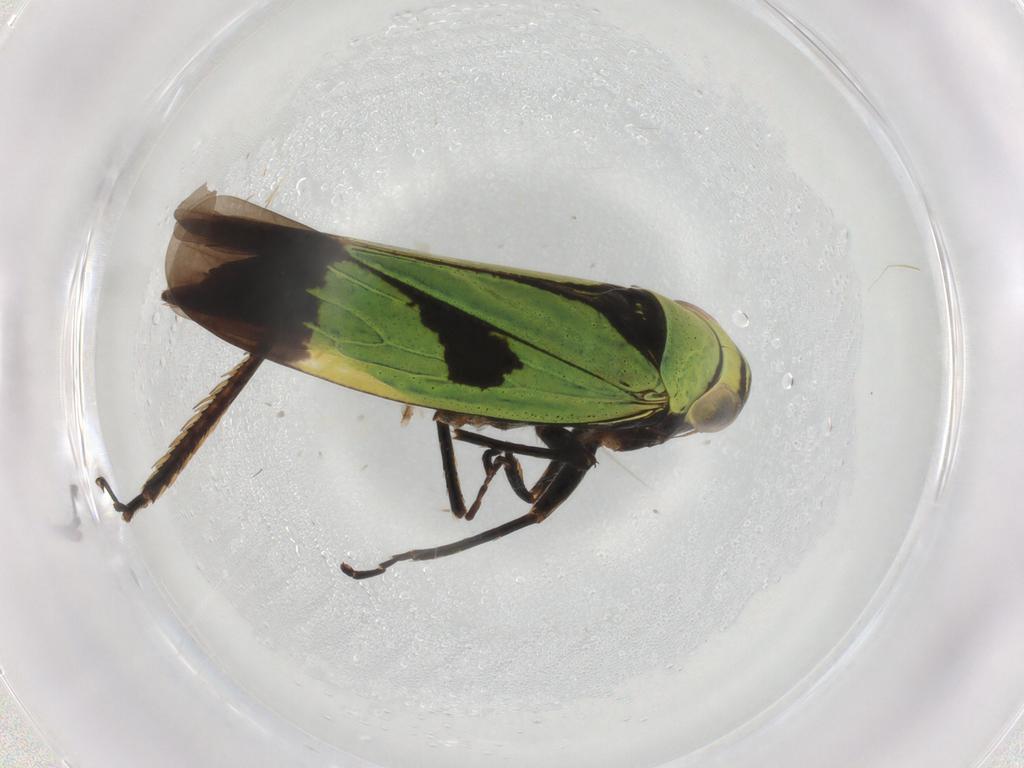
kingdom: Animalia
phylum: Arthropoda
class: Insecta
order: Hemiptera
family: Cicadellidae
